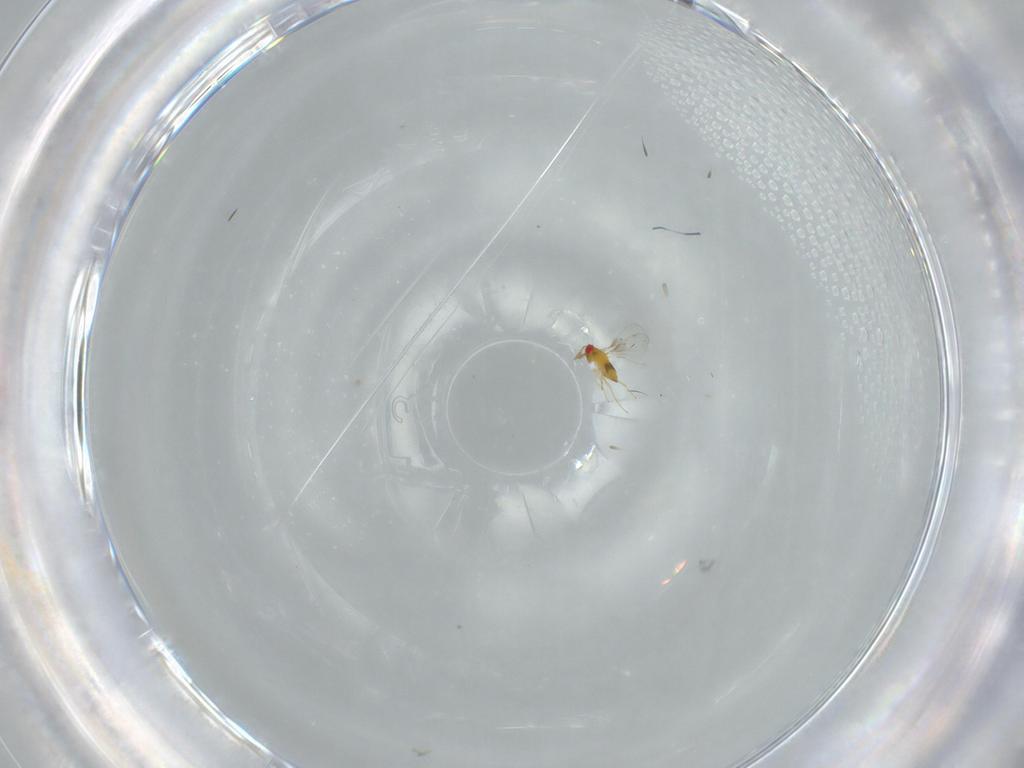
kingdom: Animalia
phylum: Arthropoda
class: Insecta
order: Hymenoptera
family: Trichogrammatidae
